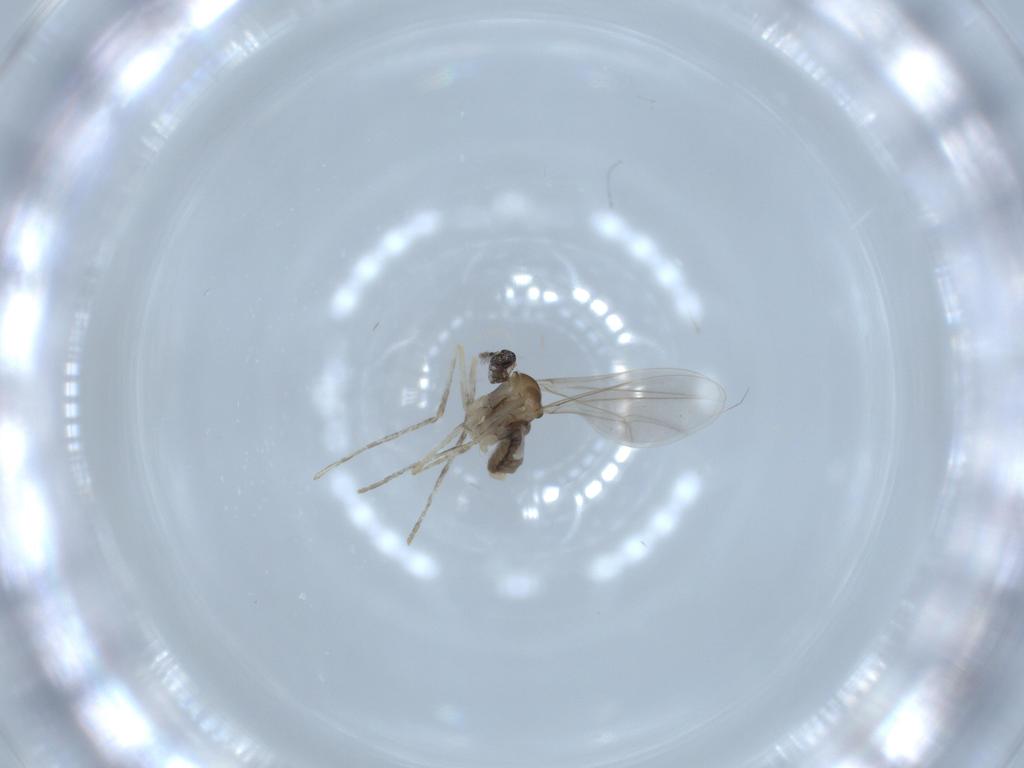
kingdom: Animalia
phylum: Arthropoda
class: Insecta
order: Diptera
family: Cecidomyiidae
